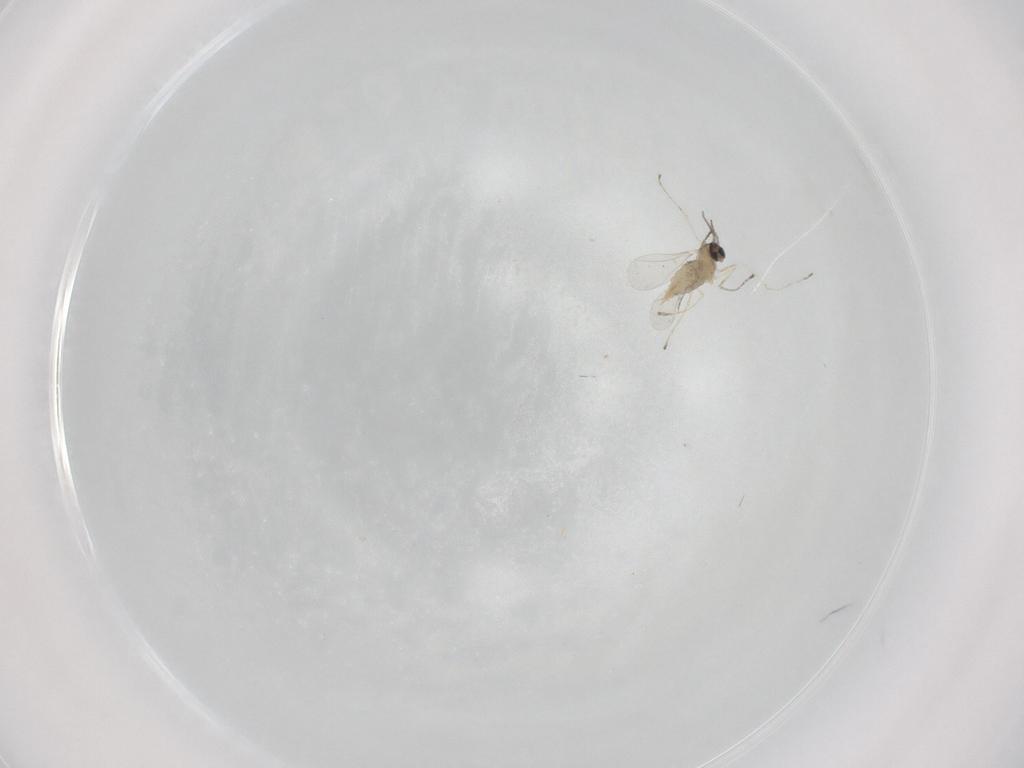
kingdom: Animalia
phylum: Arthropoda
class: Insecta
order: Diptera
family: Cecidomyiidae
